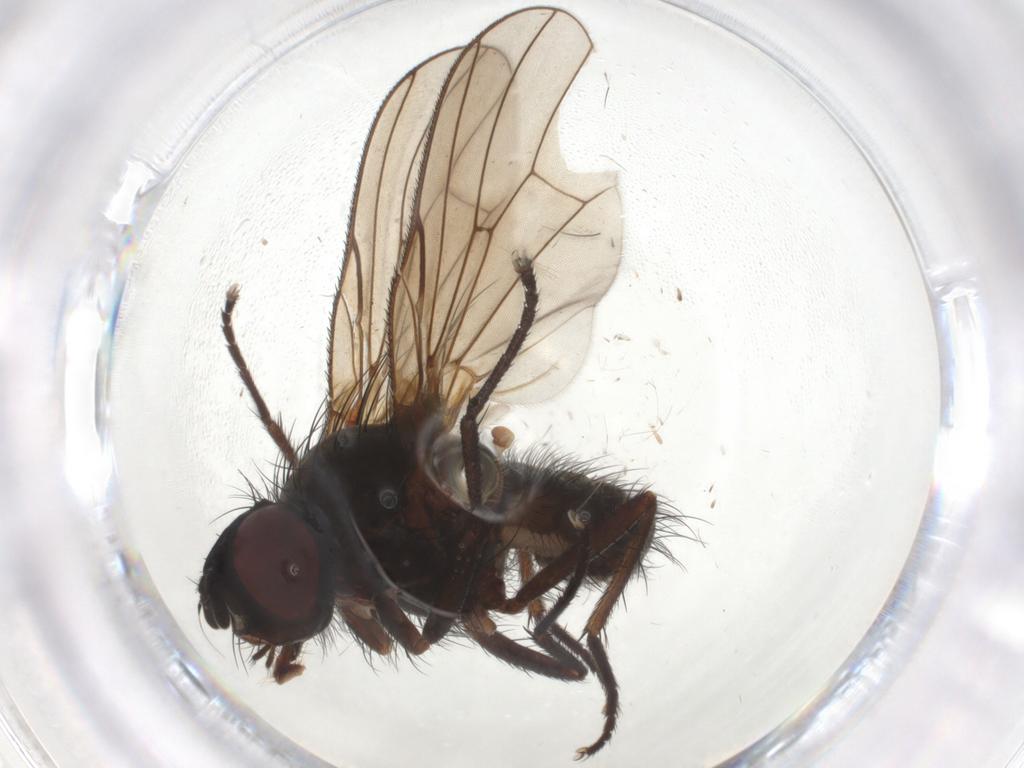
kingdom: Animalia
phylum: Arthropoda
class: Insecta
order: Diptera
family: Anthomyiidae
